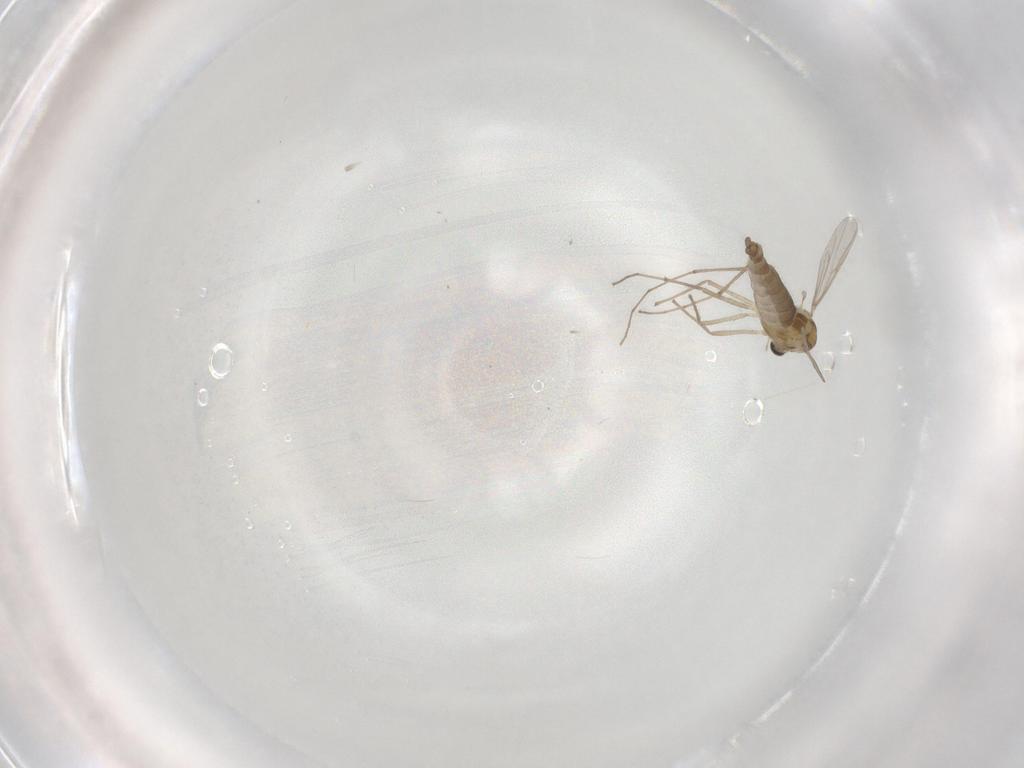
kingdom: Animalia
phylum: Arthropoda
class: Insecta
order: Diptera
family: Chironomidae
